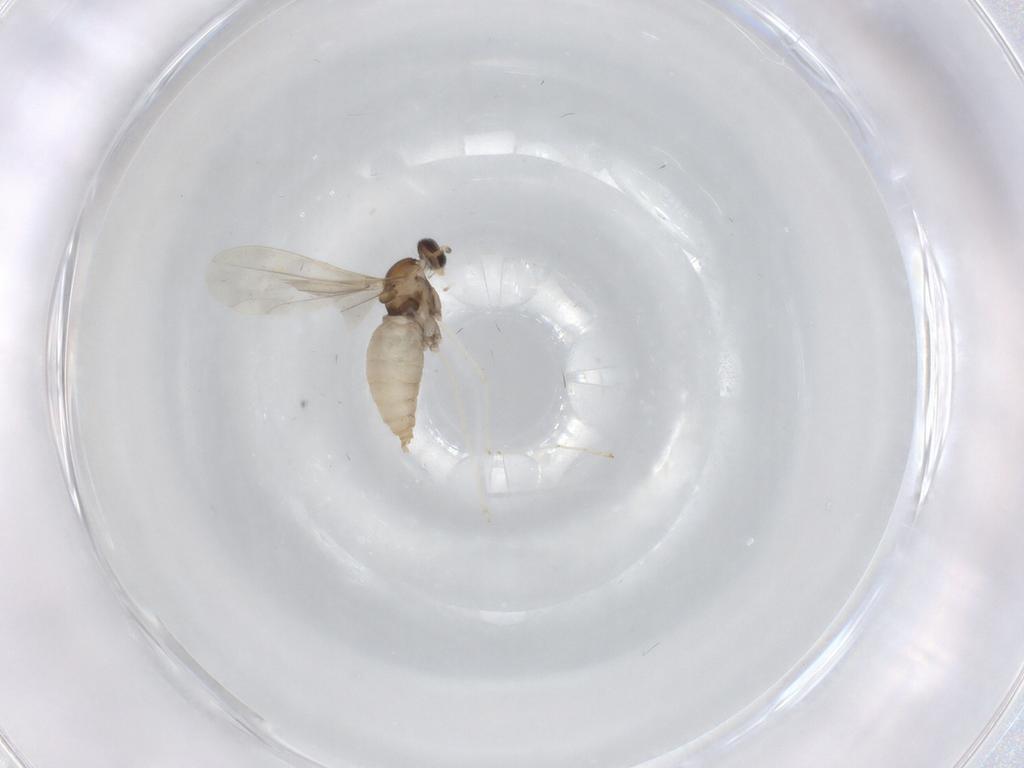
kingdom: Animalia
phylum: Arthropoda
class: Insecta
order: Diptera
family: Cecidomyiidae
